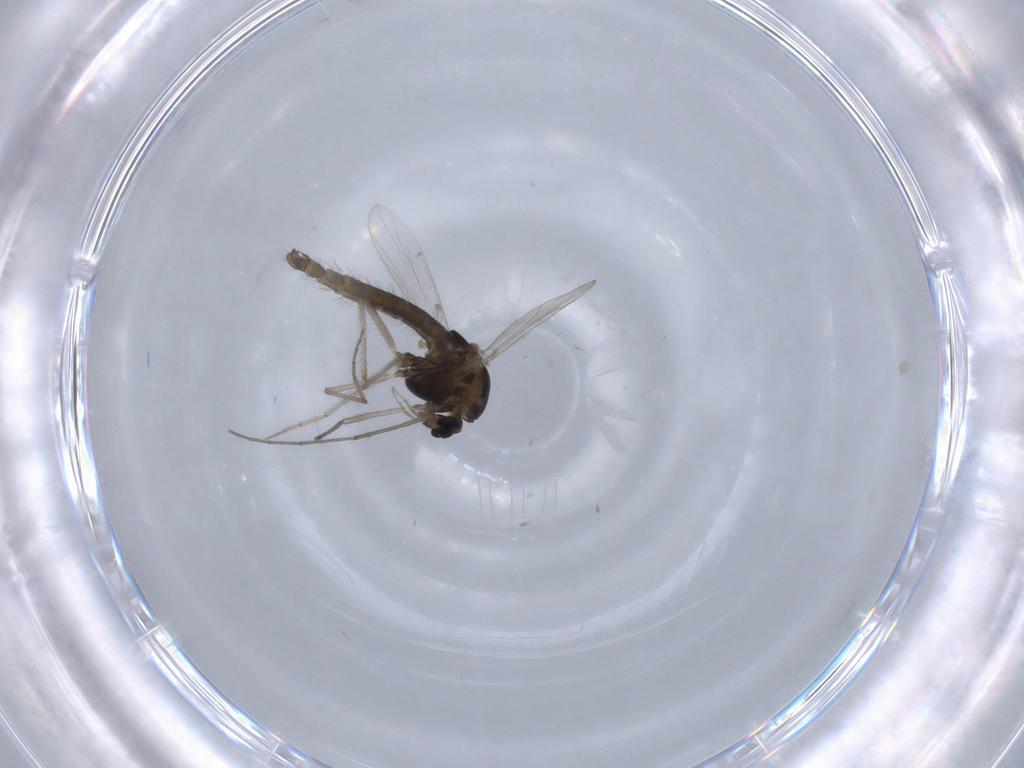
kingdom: Animalia
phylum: Arthropoda
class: Insecta
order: Diptera
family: Chironomidae
